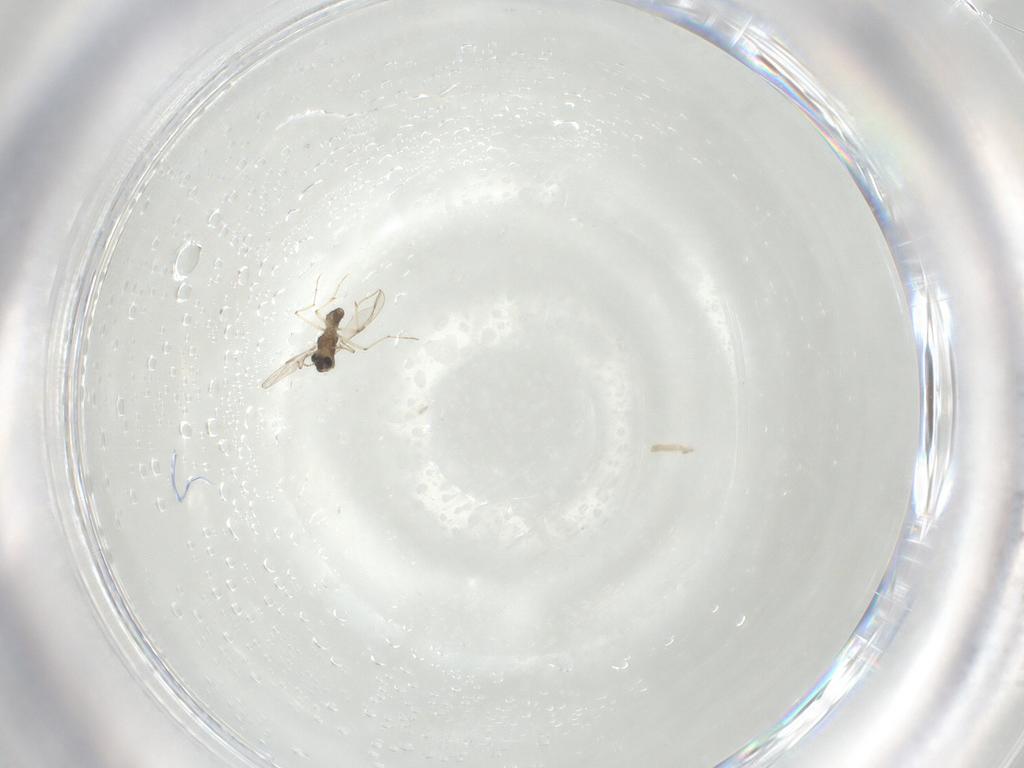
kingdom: Animalia
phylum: Arthropoda
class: Insecta
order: Diptera
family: Chironomidae
